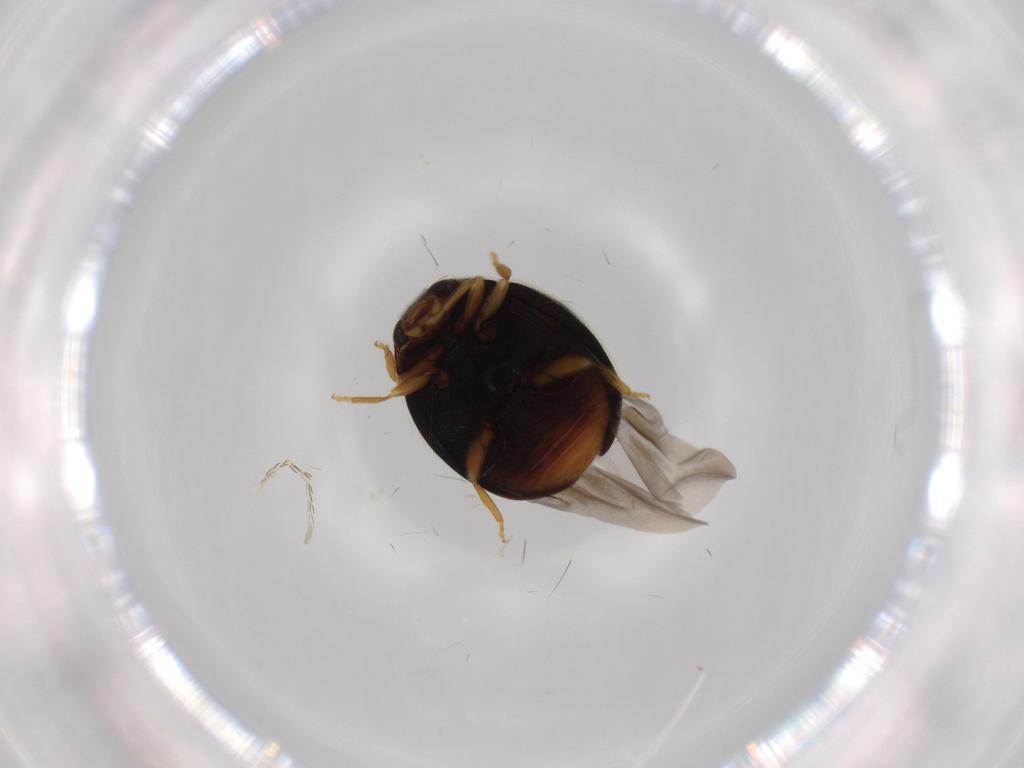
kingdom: Animalia
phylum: Arthropoda
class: Insecta
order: Coleoptera
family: Coccinellidae
